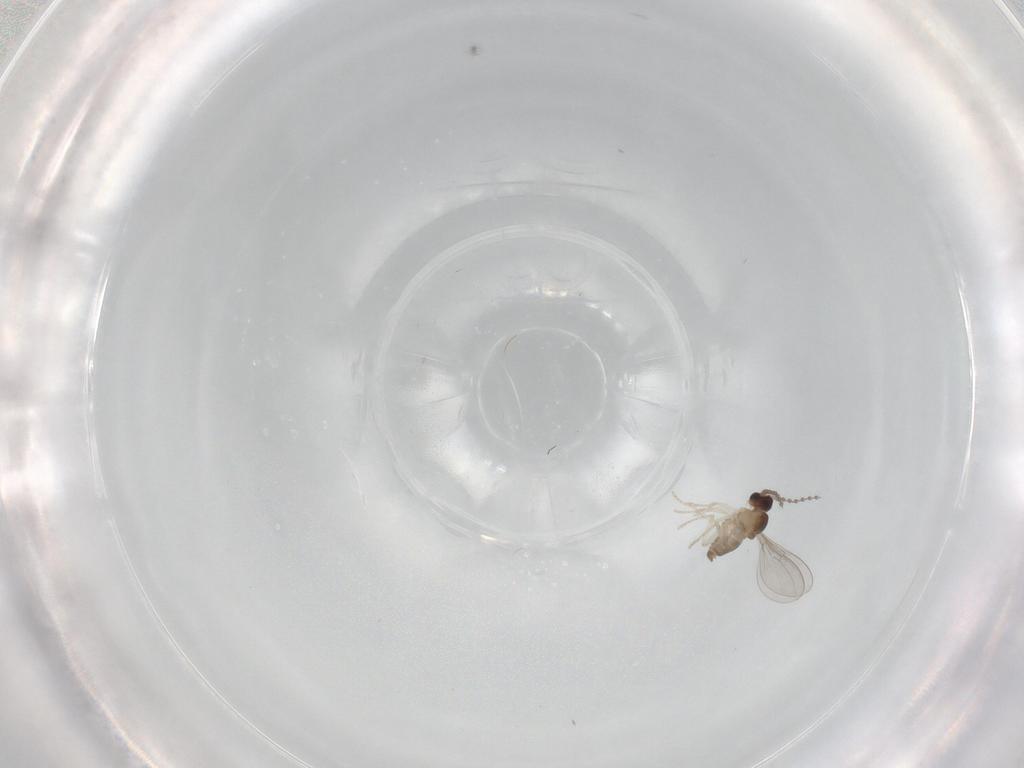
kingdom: Animalia
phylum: Arthropoda
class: Insecta
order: Diptera
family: Cecidomyiidae
